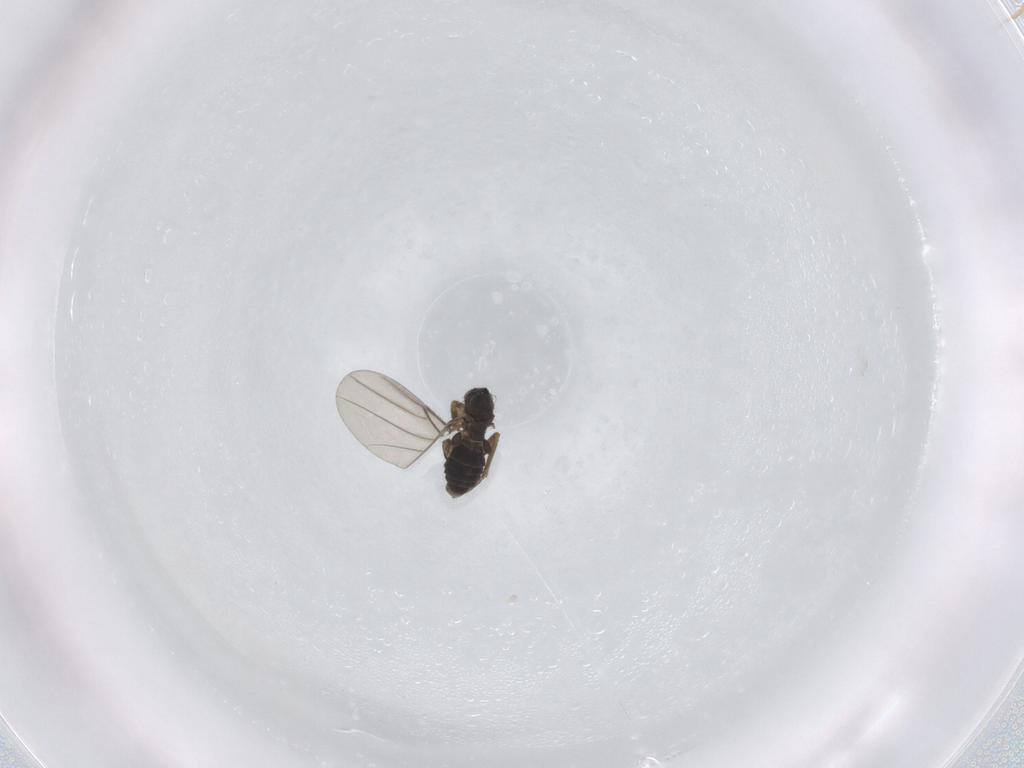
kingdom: Animalia
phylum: Arthropoda
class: Insecta
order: Diptera
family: Phoridae
